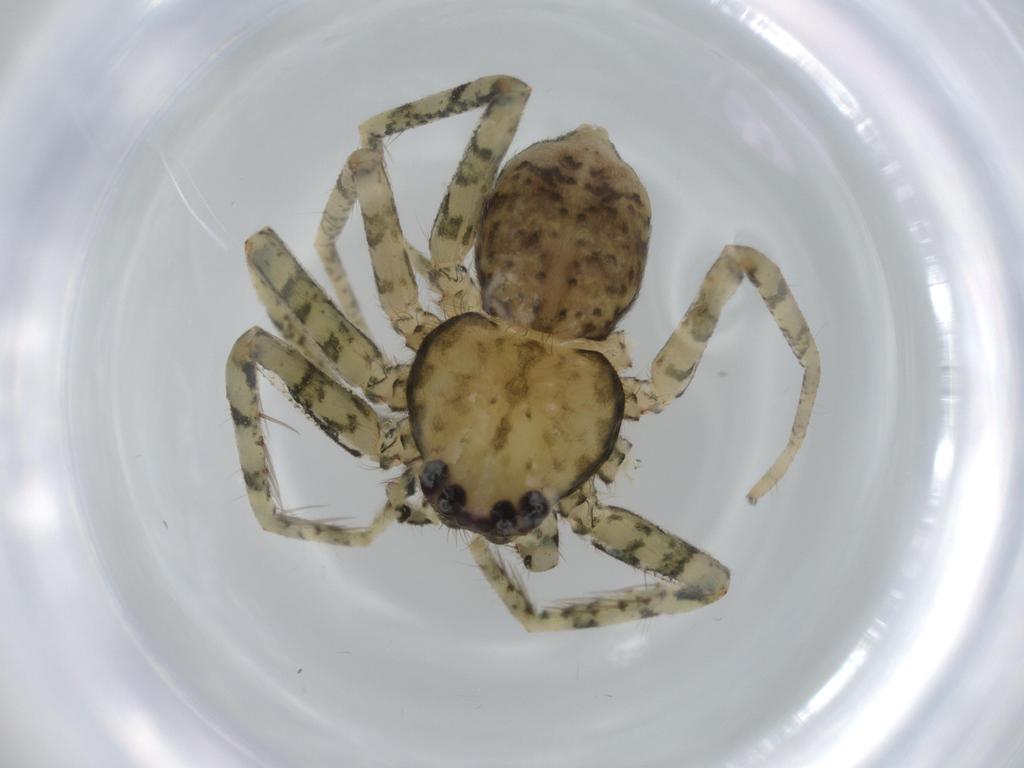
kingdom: Animalia
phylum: Arthropoda
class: Arachnida
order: Araneae
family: Selenopidae
